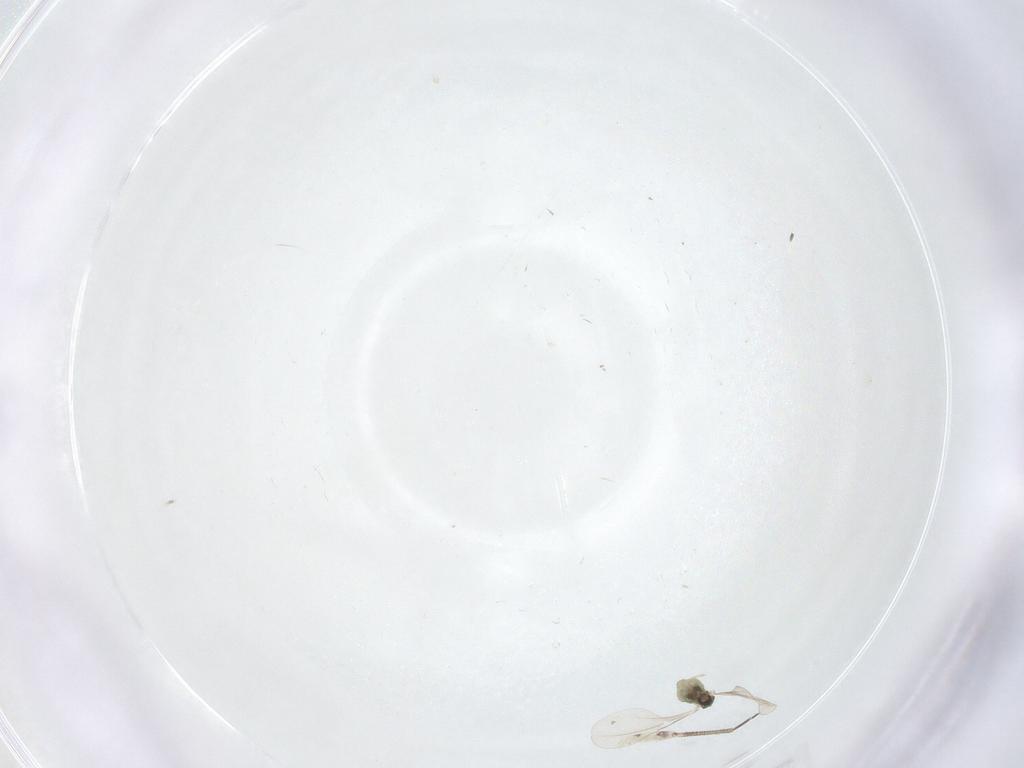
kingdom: Animalia
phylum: Arthropoda
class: Insecta
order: Diptera
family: Cecidomyiidae
